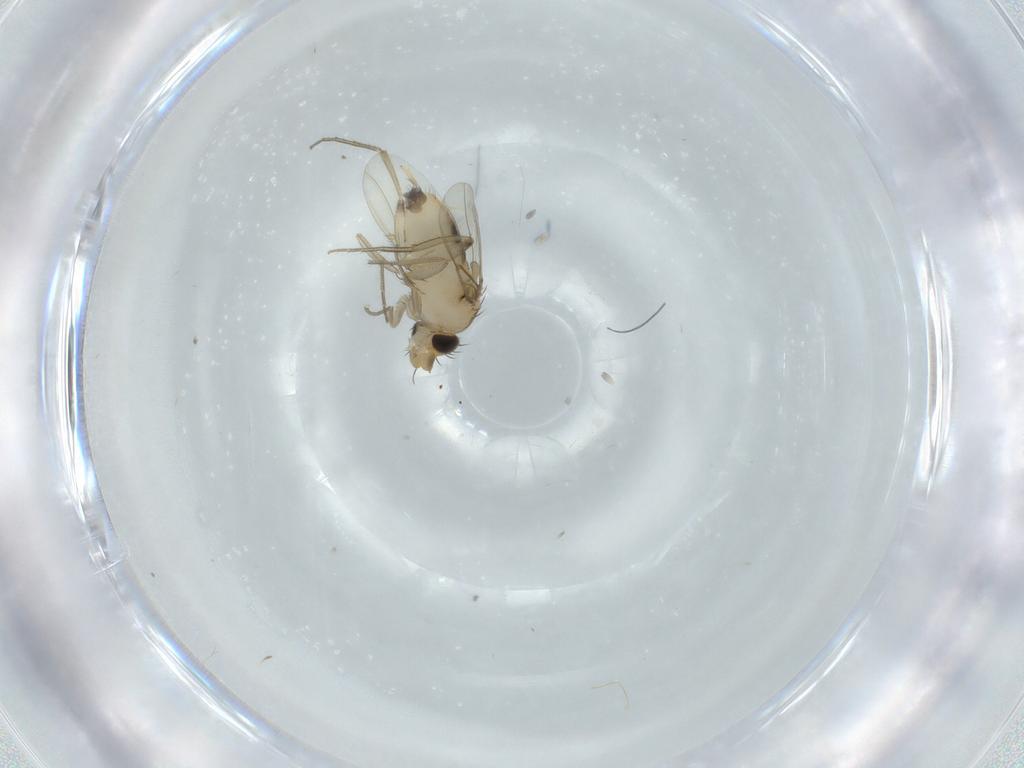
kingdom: Animalia
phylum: Arthropoda
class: Insecta
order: Diptera
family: Phoridae
